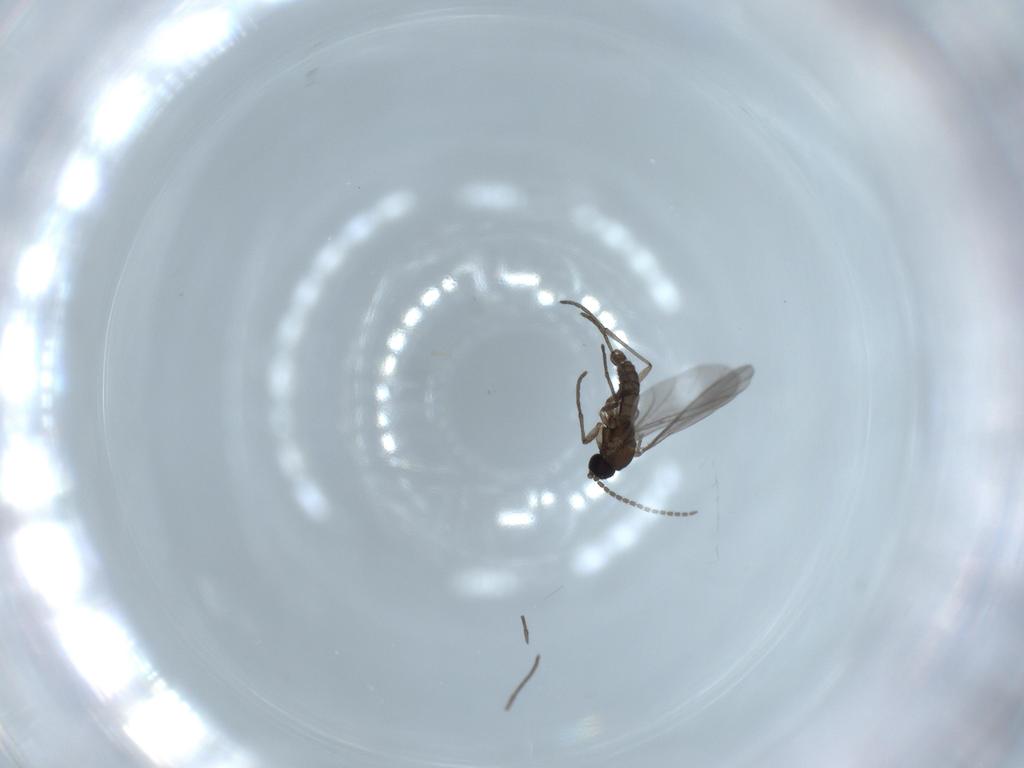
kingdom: Animalia
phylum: Arthropoda
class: Insecta
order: Diptera
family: Sciaridae
